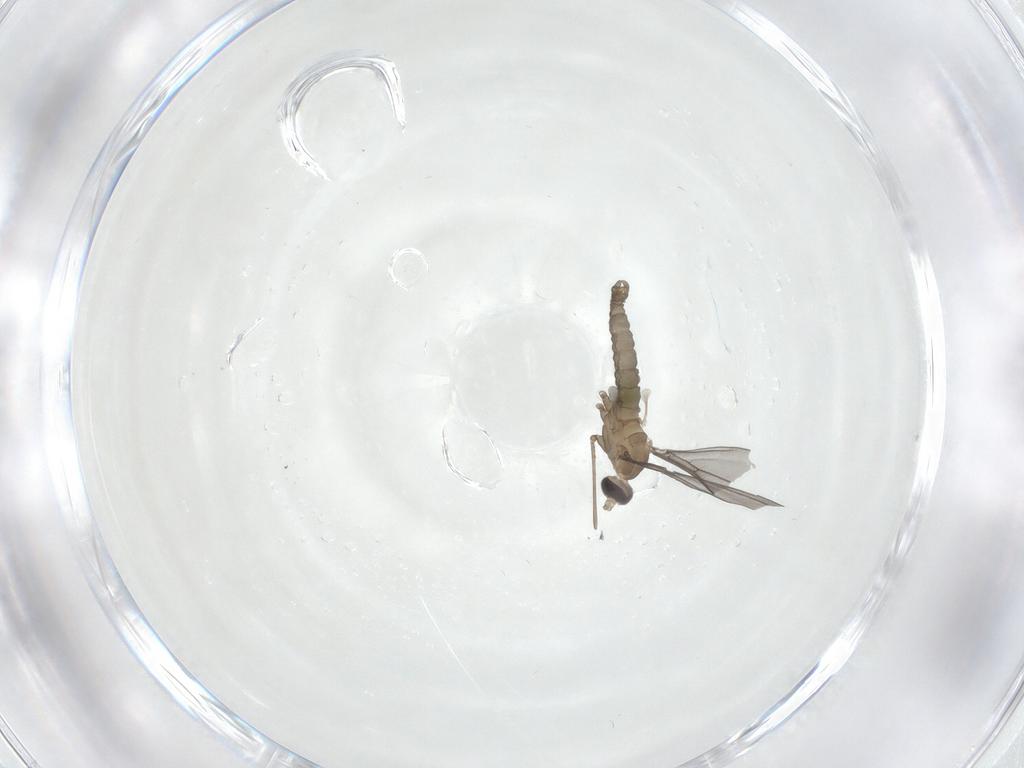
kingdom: Animalia
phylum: Arthropoda
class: Insecta
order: Diptera
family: Cecidomyiidae
